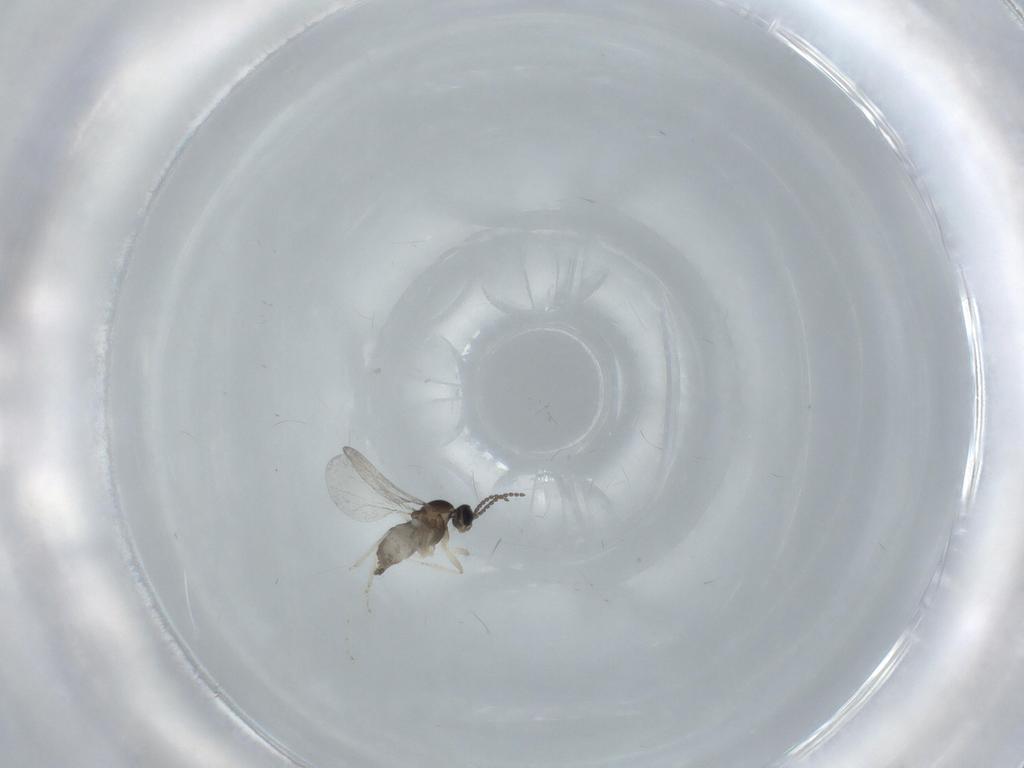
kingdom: Animalia
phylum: Arthropoda
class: Insecta
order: Diptera
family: Cecidomyiidae
